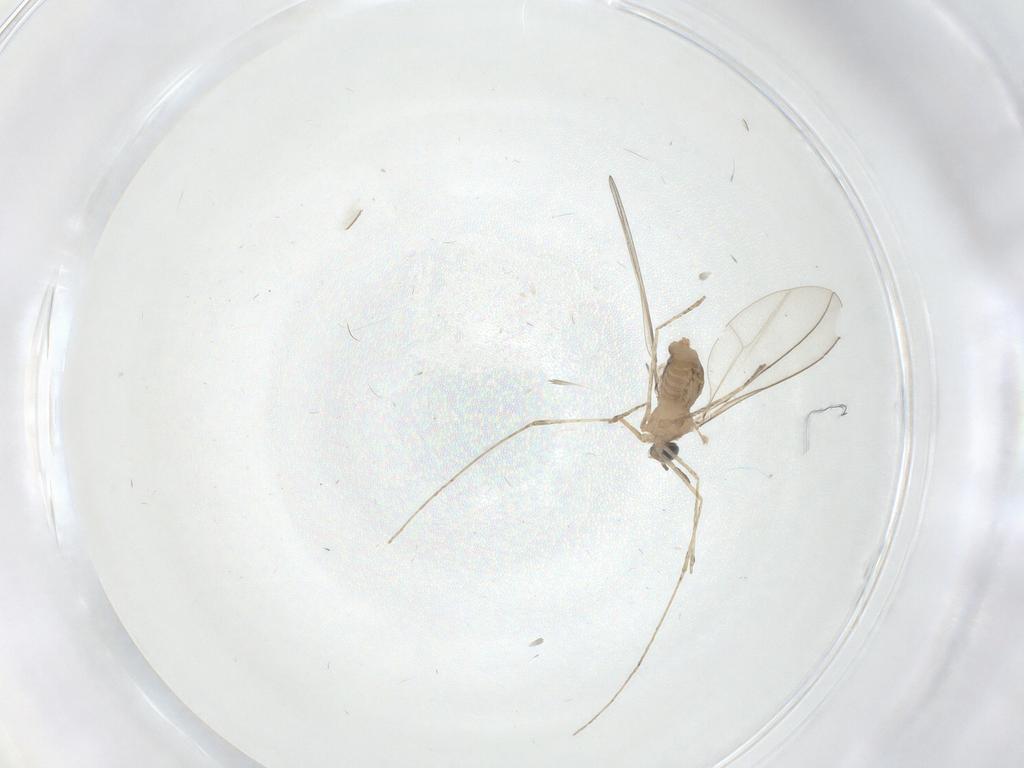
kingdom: Animalia
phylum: Arthropoda
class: Insecta
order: Diptera
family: Cecidomyiidae
